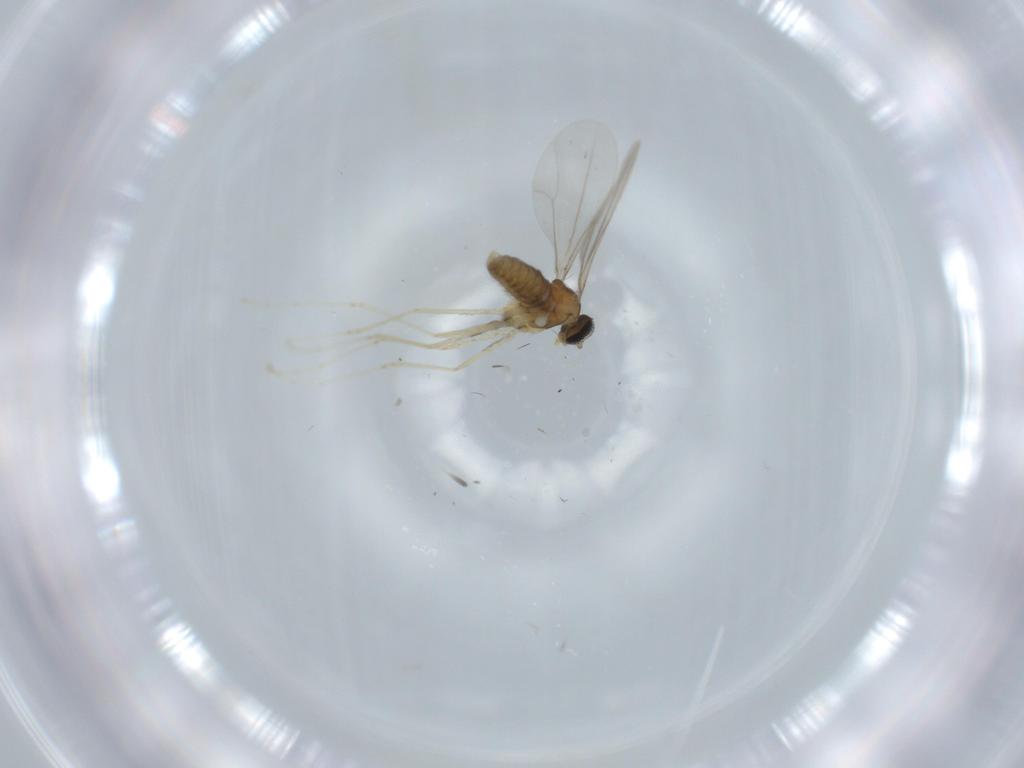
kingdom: Animalia
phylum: Arthropoda
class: Insecta
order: Diptera
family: Cecidomyiidae
